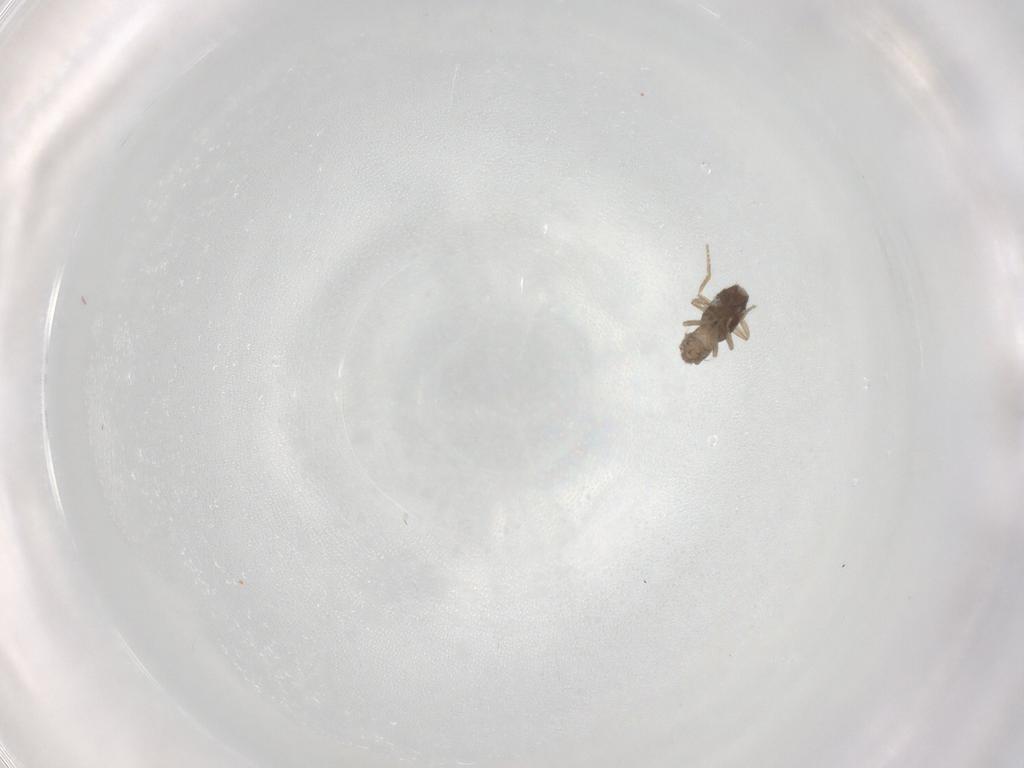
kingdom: Animalia
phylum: Arthropoda
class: Insecta
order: Diptera
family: Phoridae
